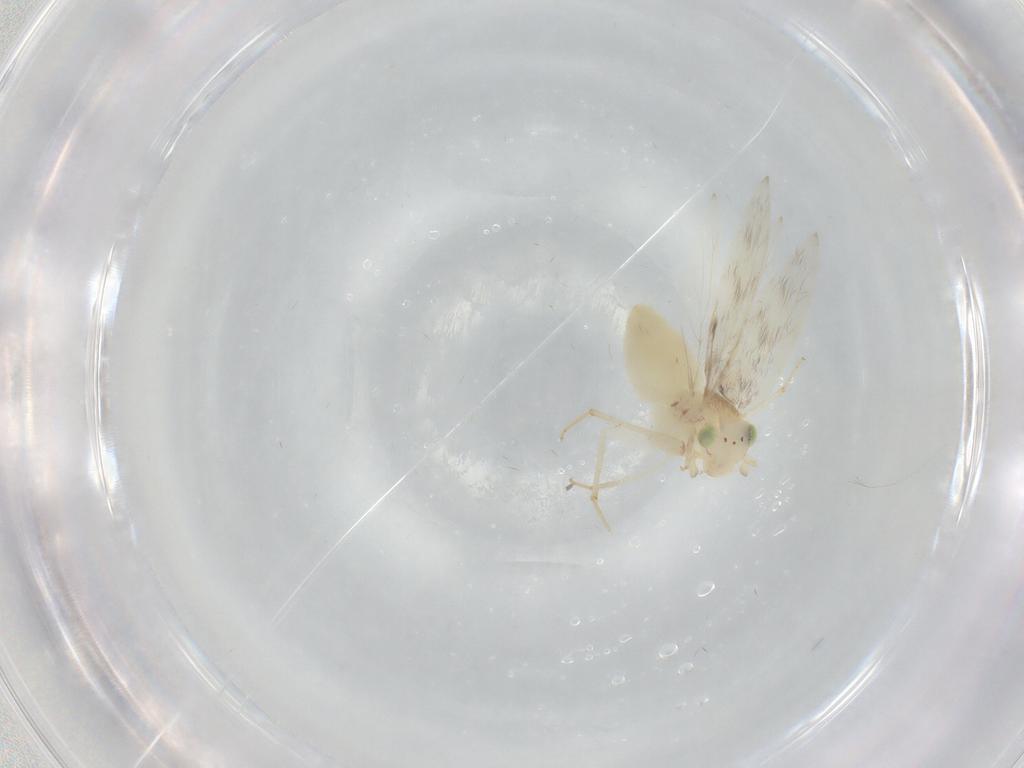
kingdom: Animalia
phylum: Arthropoda
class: Insecta
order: Psocodea
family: Lepidopsocidae
